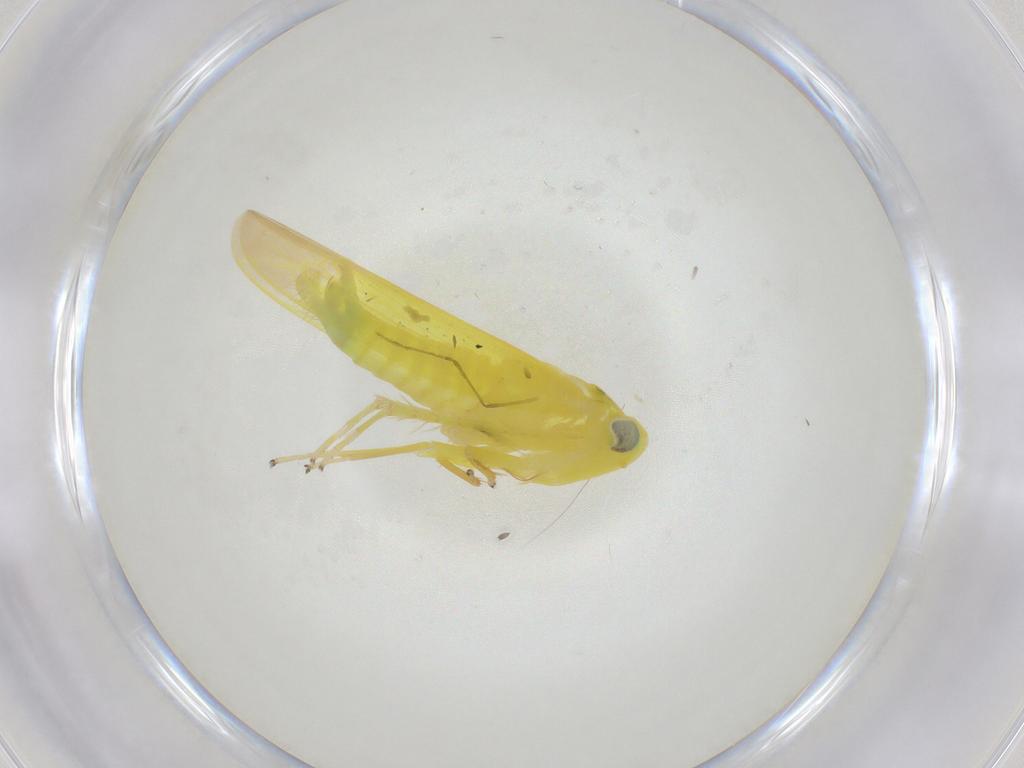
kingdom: Animalia
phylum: Arthropoda
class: Insecta
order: Hemiptera
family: Cicadellidae
